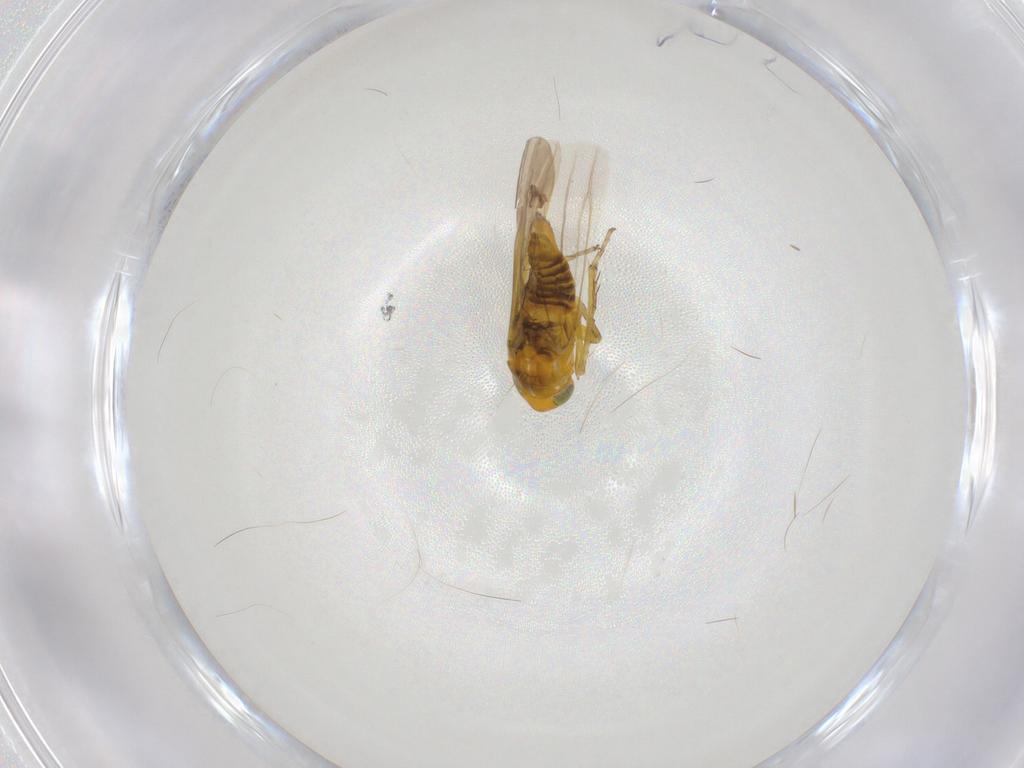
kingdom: Animalia
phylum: Arthropoda
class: Insecta
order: Hemiptera
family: Cicadellidae
